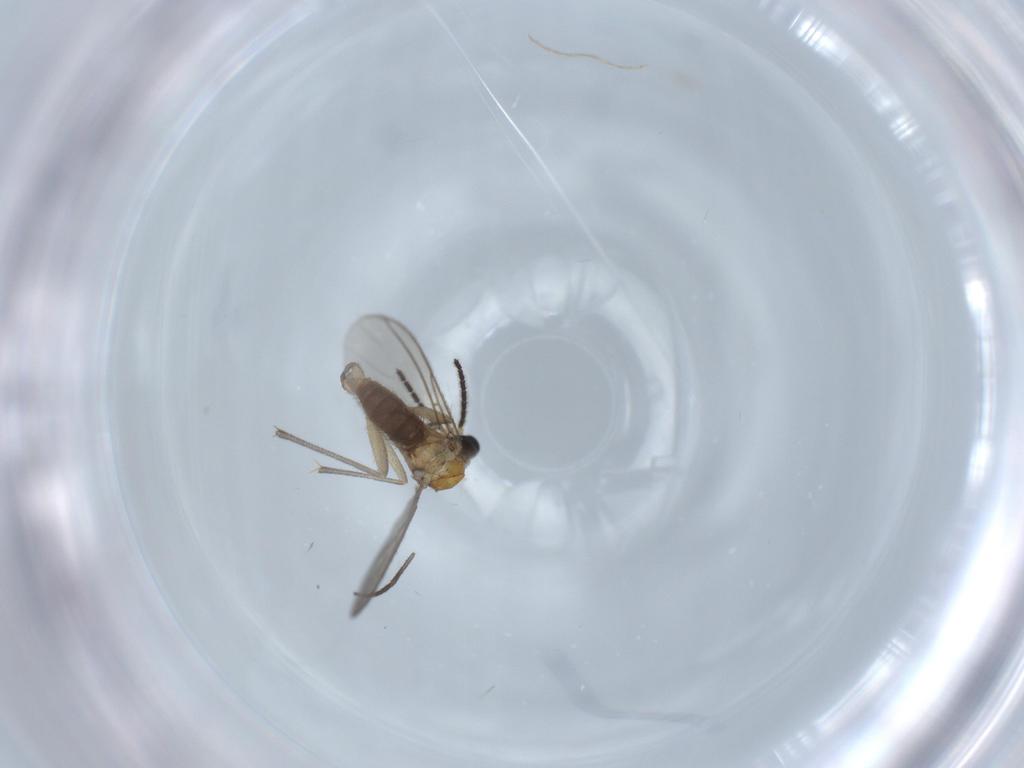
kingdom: Animalia
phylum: Arthropoda
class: Insecta
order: Diptera
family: Sciaridae
